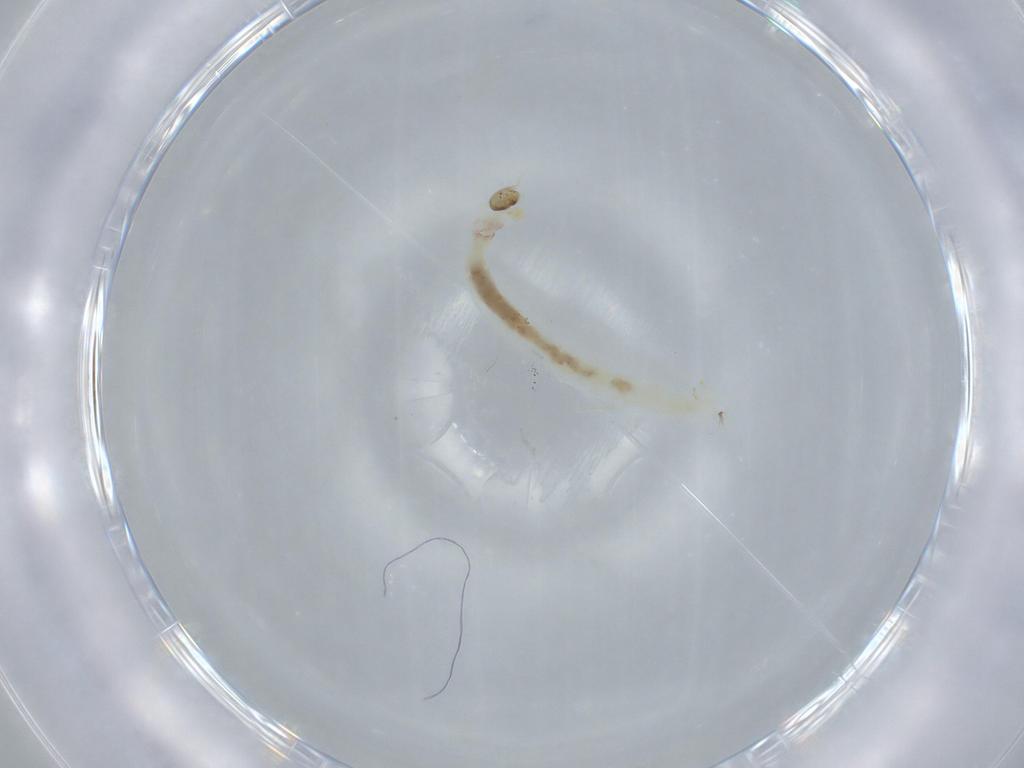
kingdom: Animalia
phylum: Arthropoda
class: Insecta
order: Diptera
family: Chironomidae
